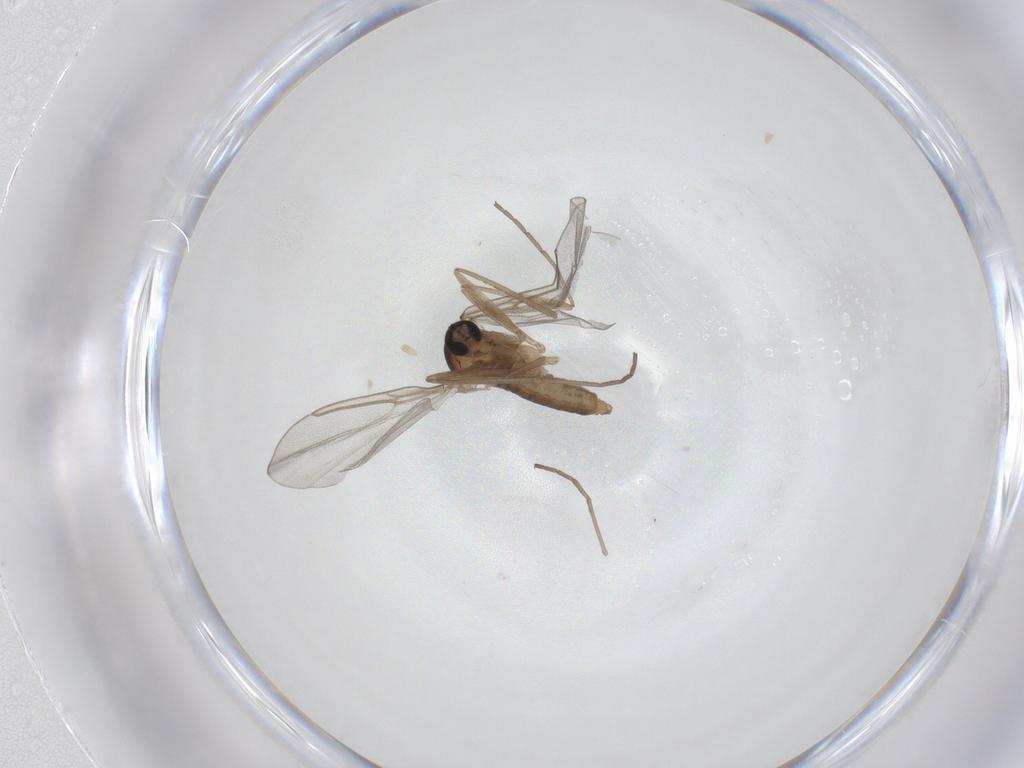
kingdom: Animalia
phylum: Arthropoda
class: Insecta
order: Diptera
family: Cecidomyiidae
